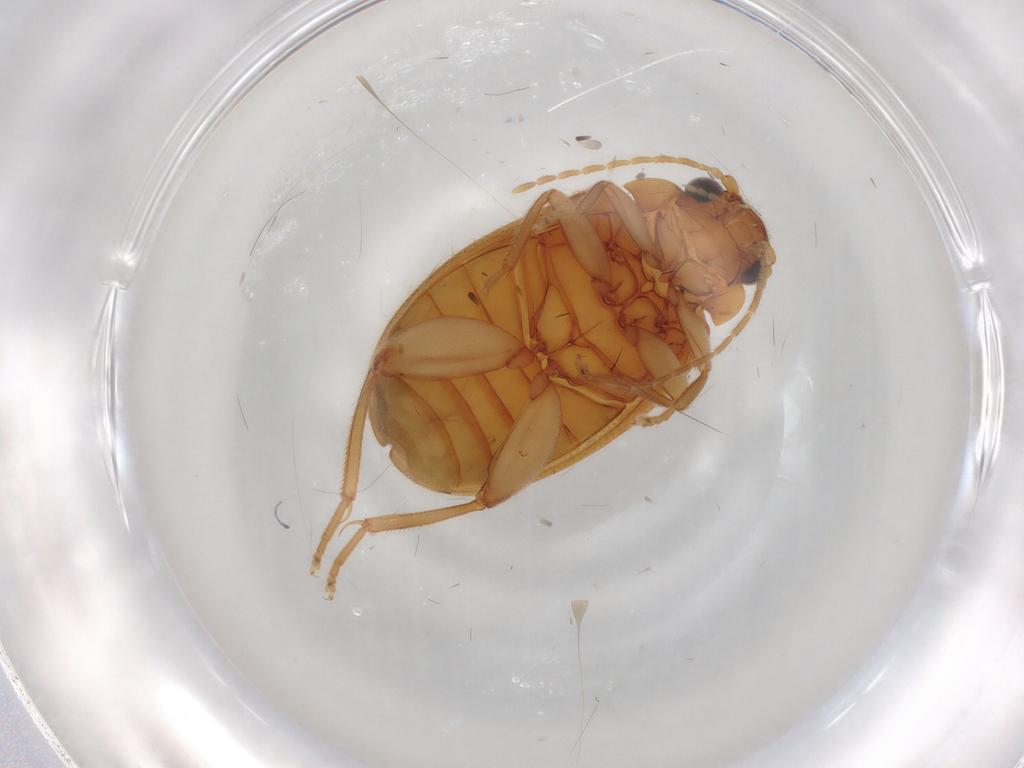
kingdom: Animalia
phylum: Arthropoda
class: Insecta
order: Coleoptera
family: Scirtidae
